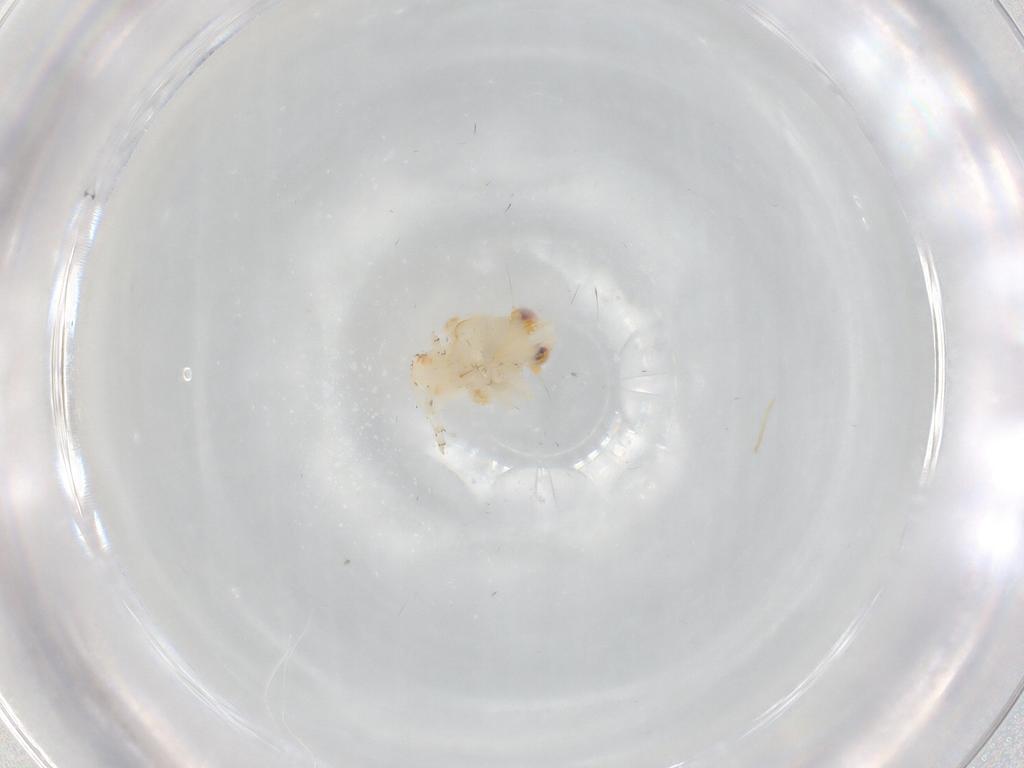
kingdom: Animalia
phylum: Arthropoda
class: Insecta
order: Hemiptera
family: Nogodinidae
